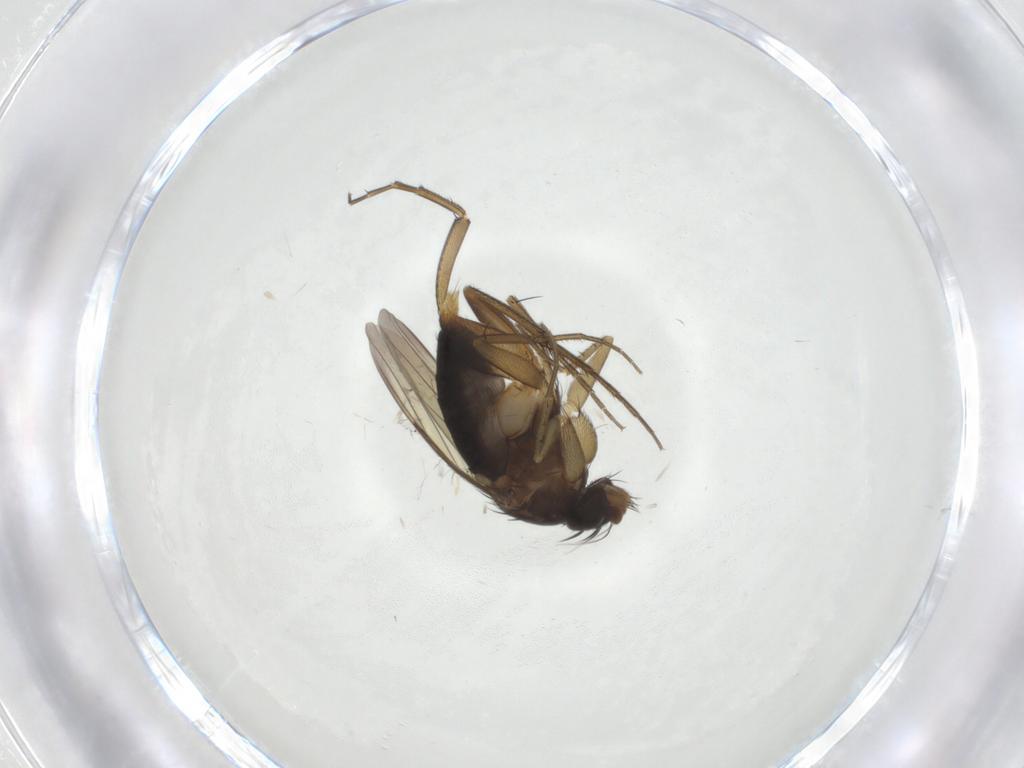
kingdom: Animalia
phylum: Arthropoda
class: Insecta
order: Diptera
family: Phoridae
